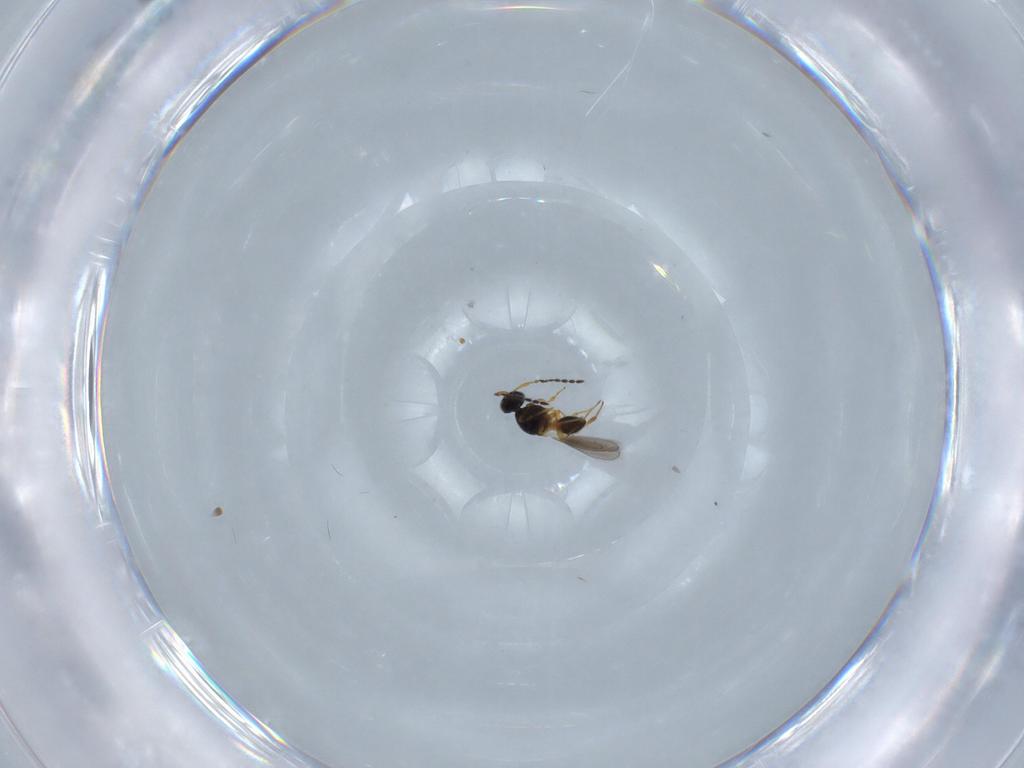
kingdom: Animalia
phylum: Arthropoda
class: Insecta
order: Hymenoptera
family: Platygastridae
